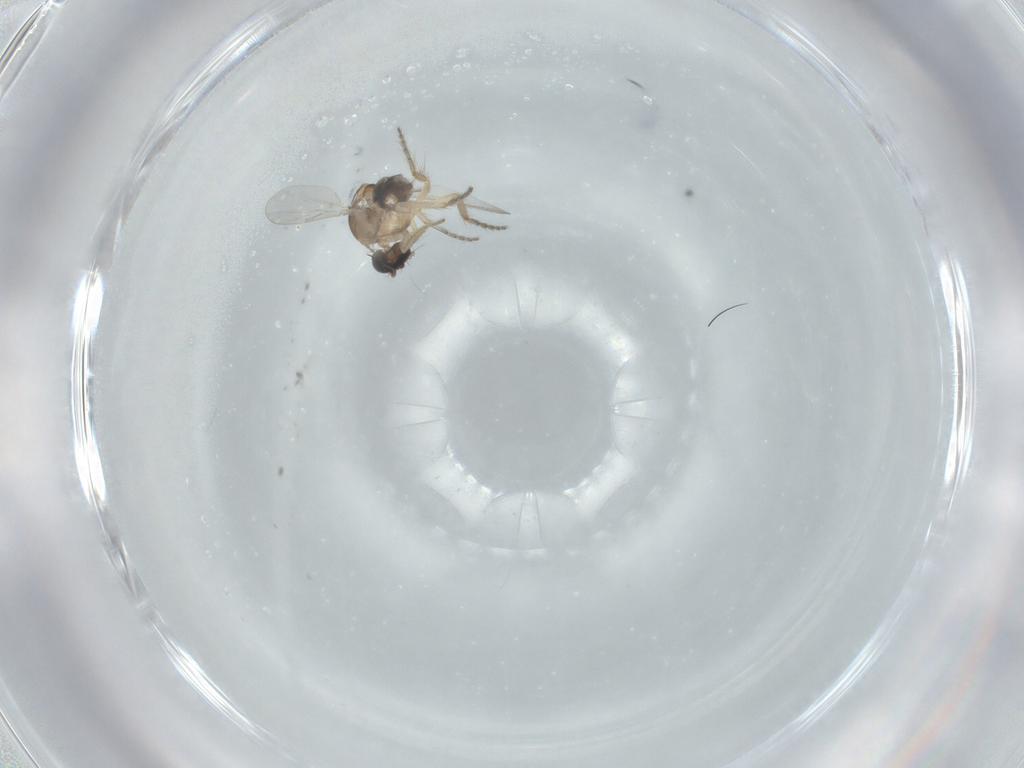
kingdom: Animalia
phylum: Arthropoda
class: Insecta
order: Diptera
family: Ceratopogonidae
